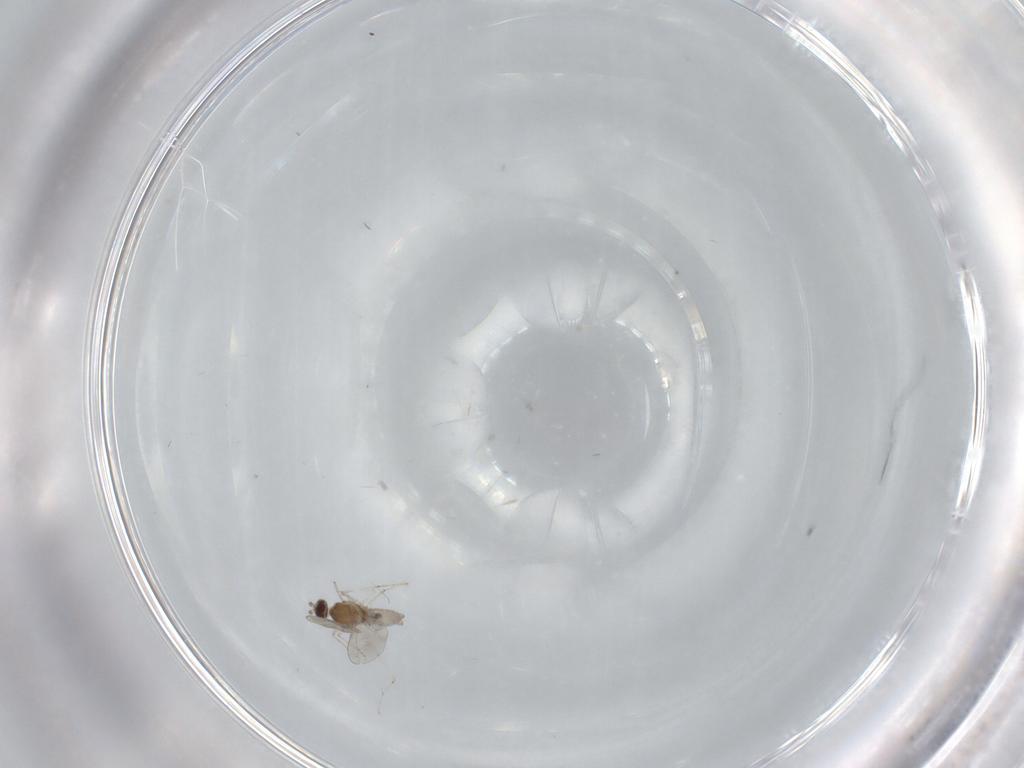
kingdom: Animalia
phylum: Arthropoda
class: Insecta
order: Diptera
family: Cecidomyiidae
